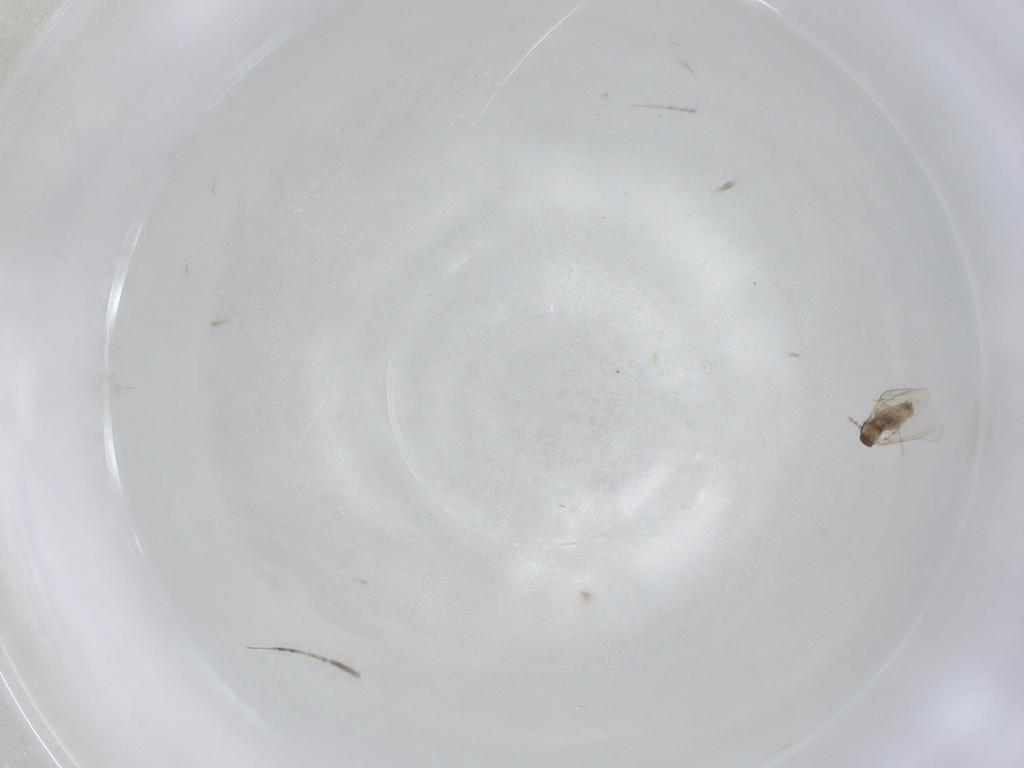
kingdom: Animalia
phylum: Arthropoda
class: Insecta
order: Diptera
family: Cecidomyiidae
